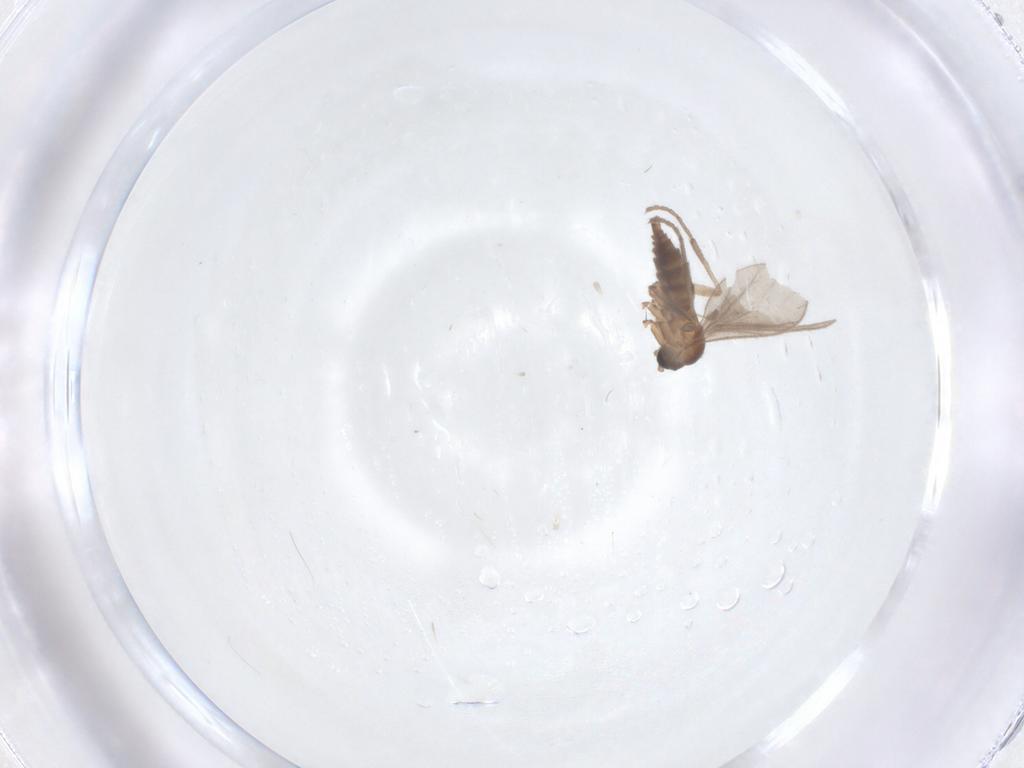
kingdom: Animalia
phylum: Arthropoda
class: Insecta
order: Diptera
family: Sciaridae
